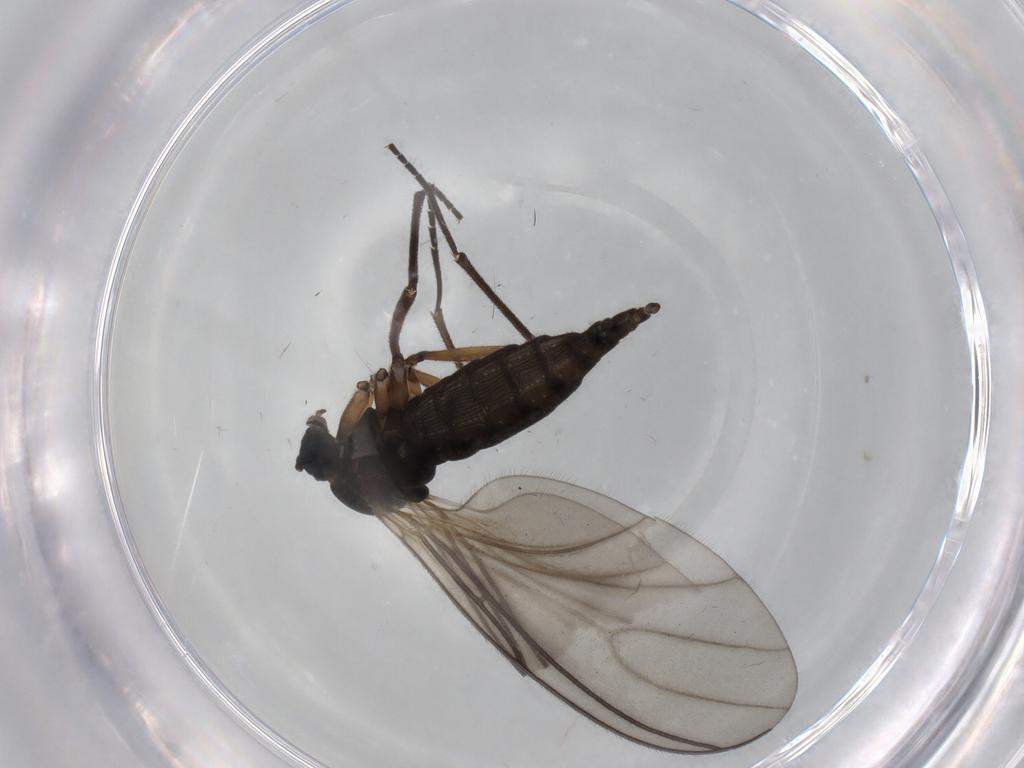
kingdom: Animalia
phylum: Arthropoda
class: Insecta
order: Diptera
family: Sciaridae
